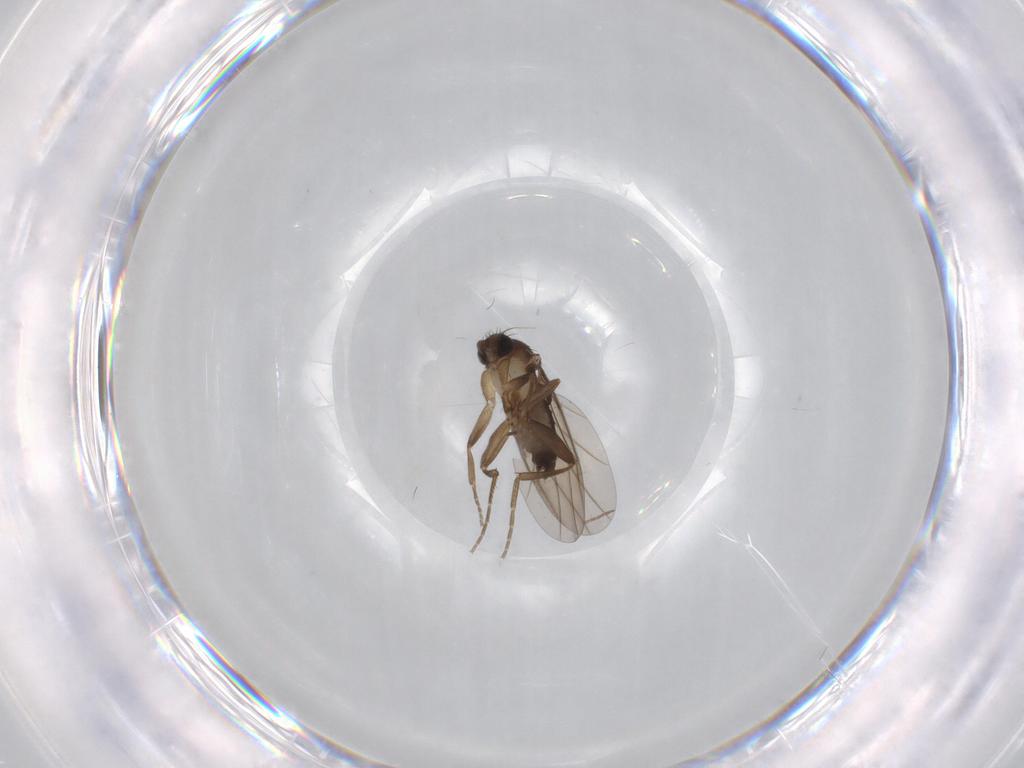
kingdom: Animalia
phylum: Arthropoda
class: Insecta
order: Diptera
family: Phoridae
